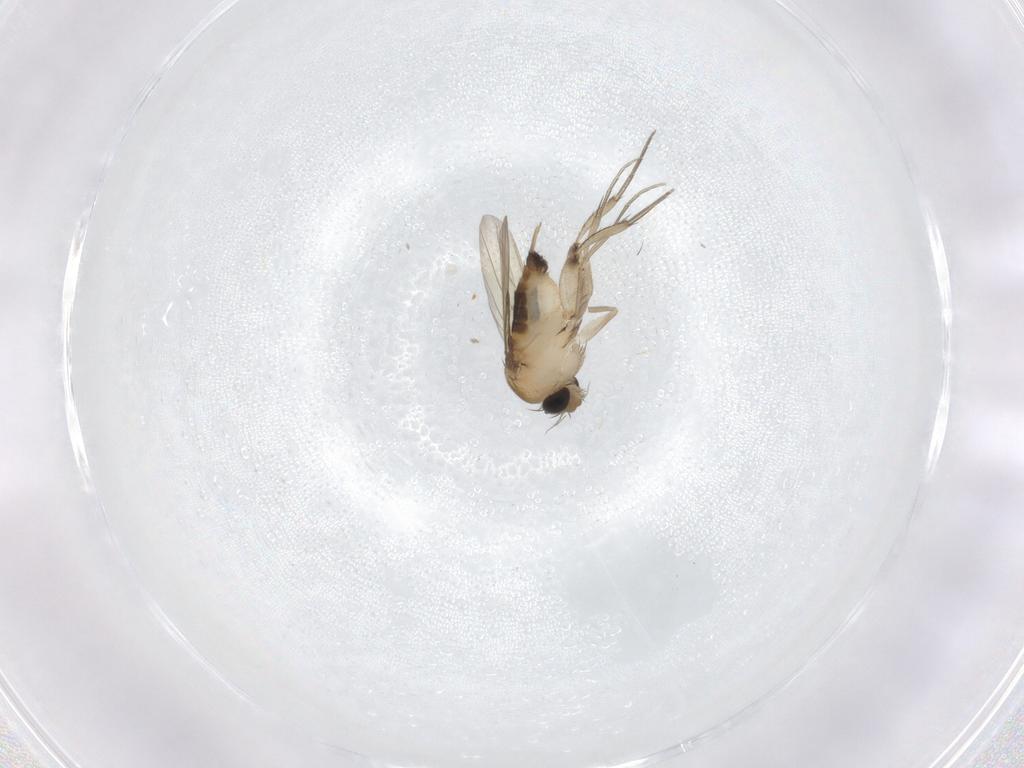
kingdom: Animalia
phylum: Arthropoda
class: Insecta
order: Diptera
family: Phoridae
